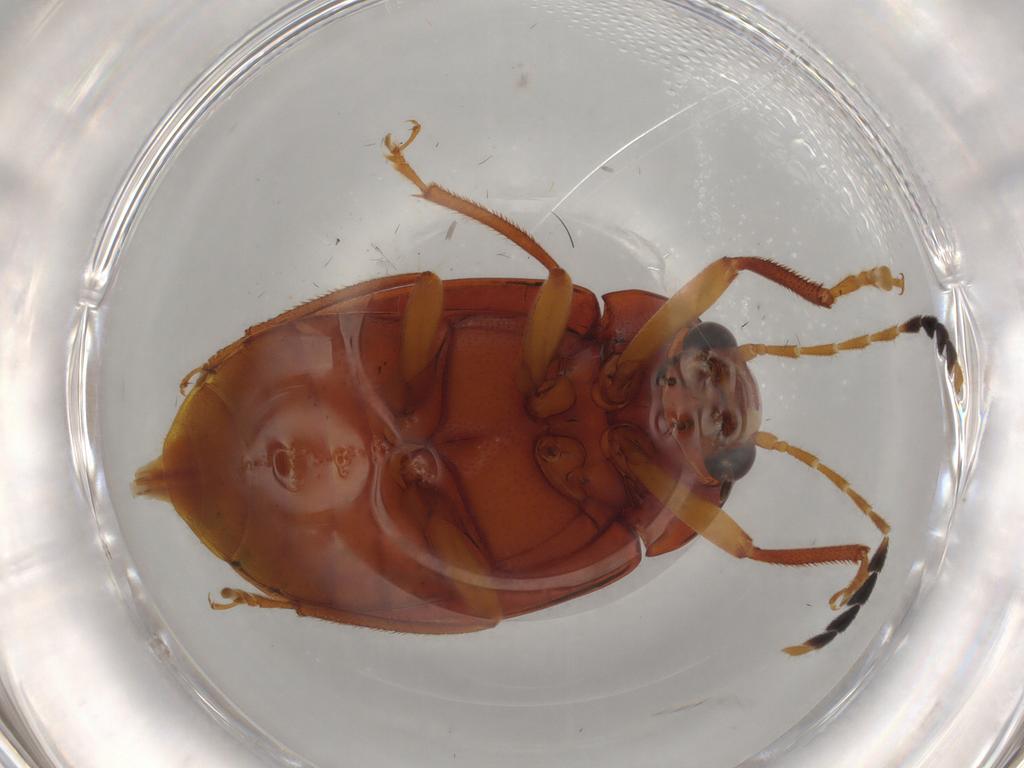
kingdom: Animalia
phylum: Arthropoda
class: Insecta
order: Coleoptera
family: Ptilodactylidae
